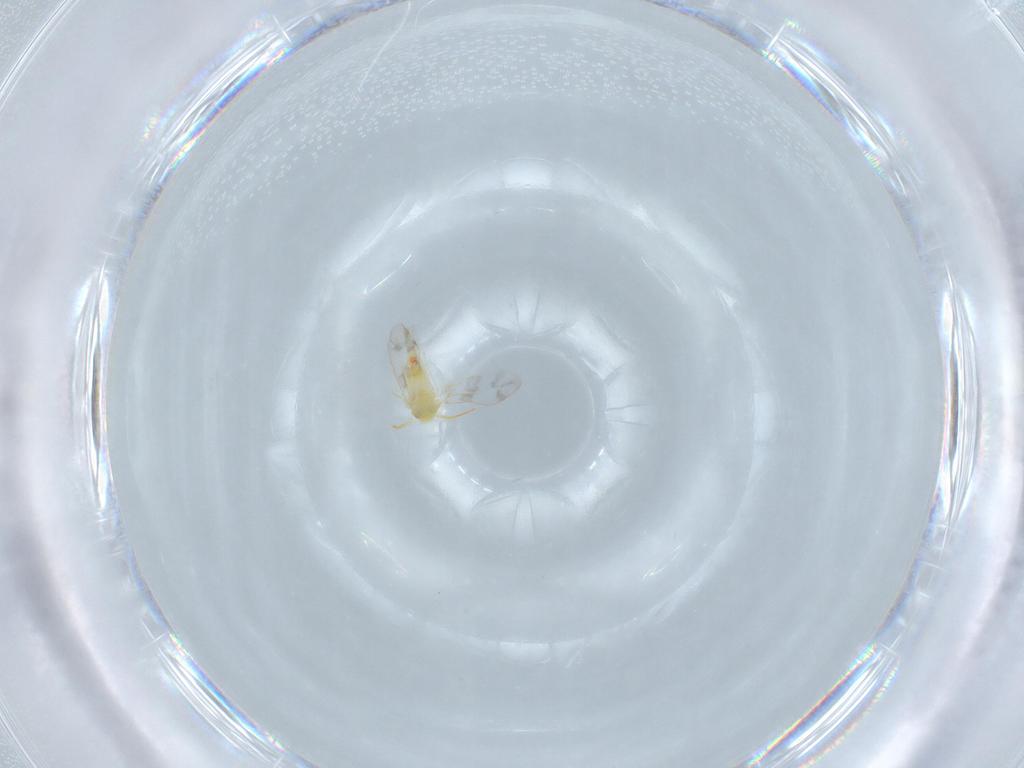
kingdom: Animalia
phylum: Arthropoda
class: Insecta
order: Hemiptera
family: Aleyrodidae
